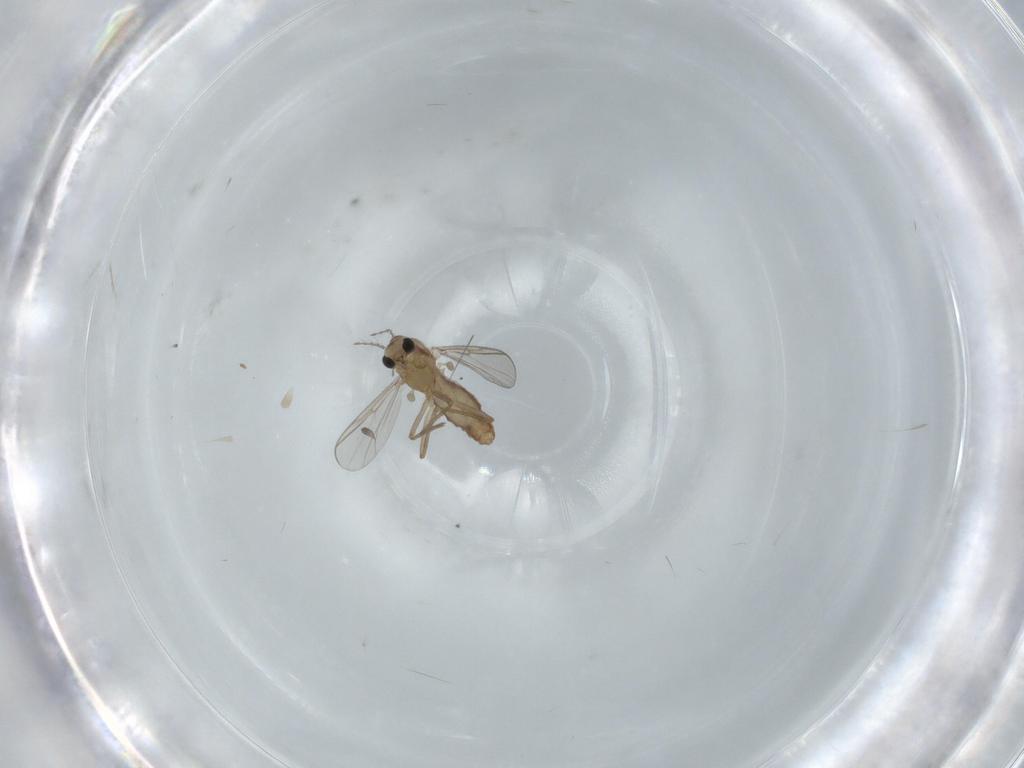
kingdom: Animalia
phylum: Arthropoda
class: Insecta
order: Diptera
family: Chironomidae
